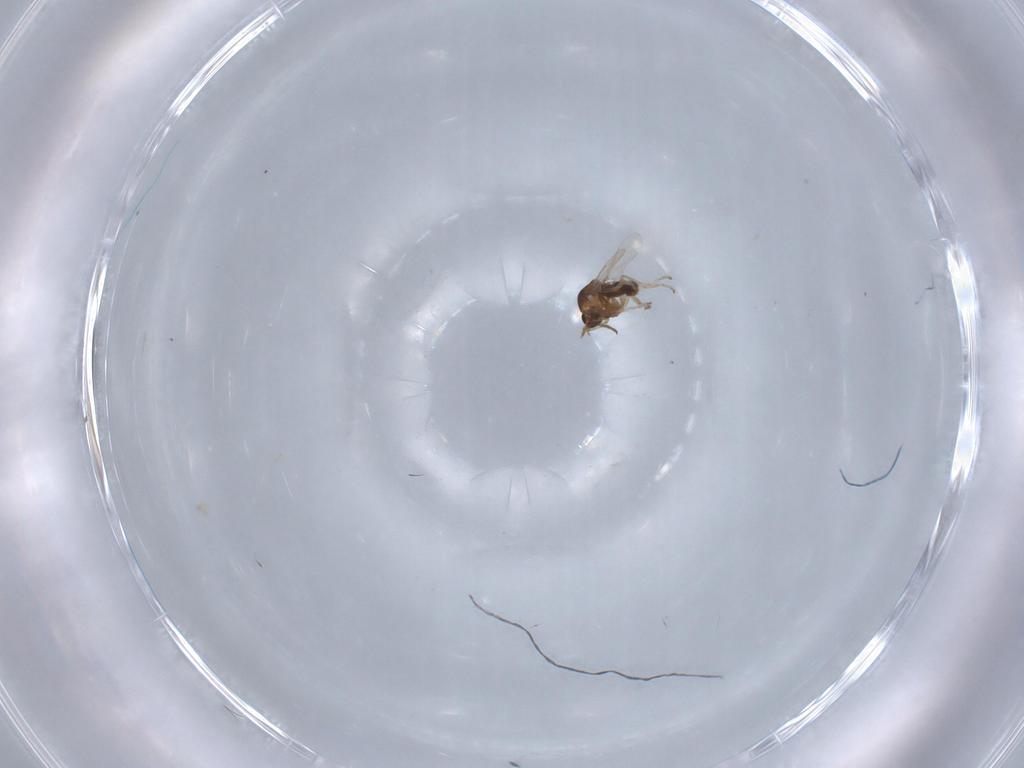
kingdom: Animalia
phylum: Arthropoda
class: Insecta
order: Diptera
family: Ceratopogonidae
